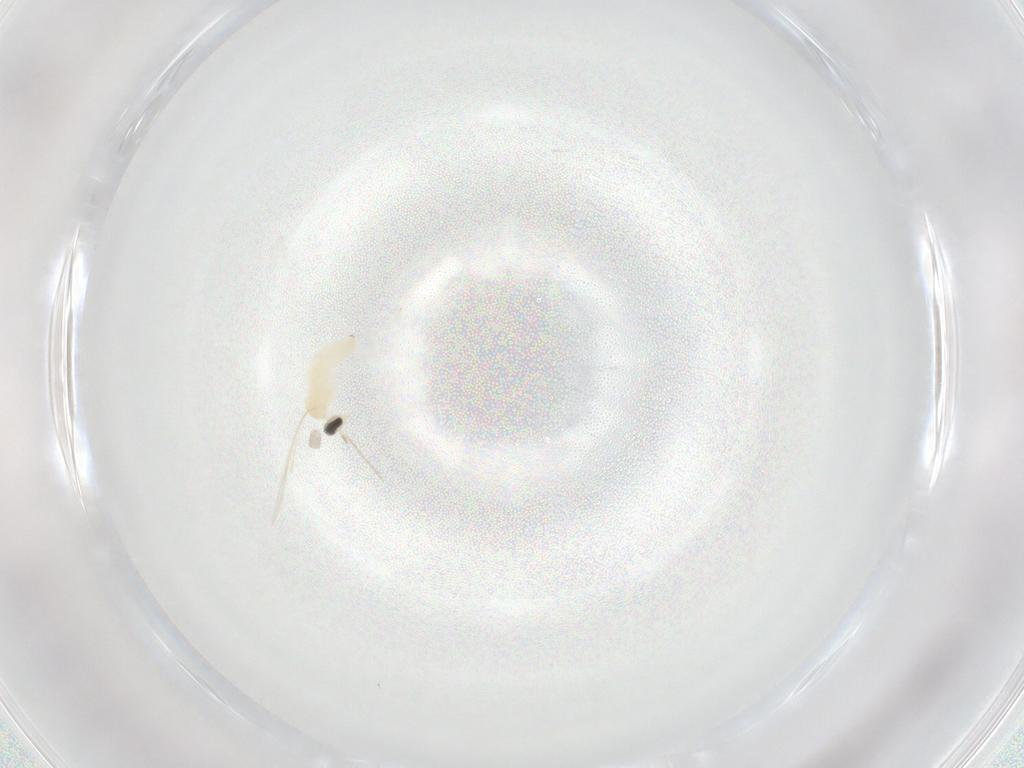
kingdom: Animalia
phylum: Arthropoda
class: Insecta
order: Diptera
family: Cecidomyiidae
